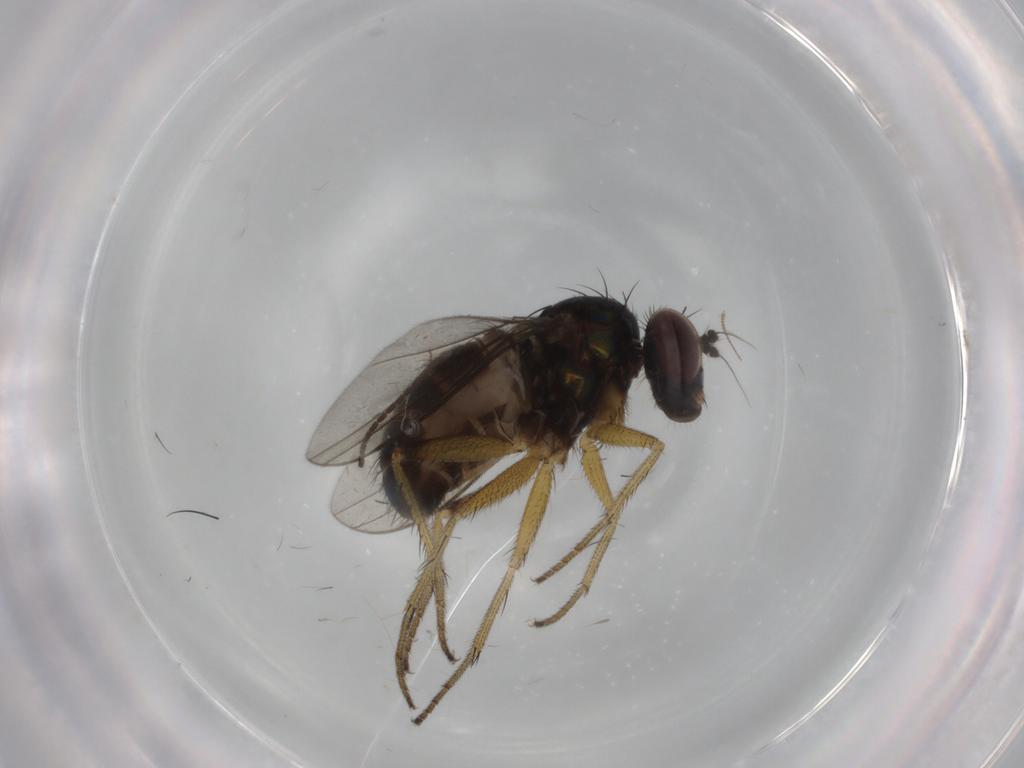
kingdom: Animalia
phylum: Arthropoda
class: Insecta
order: Diptera
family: Dolichopodidae
